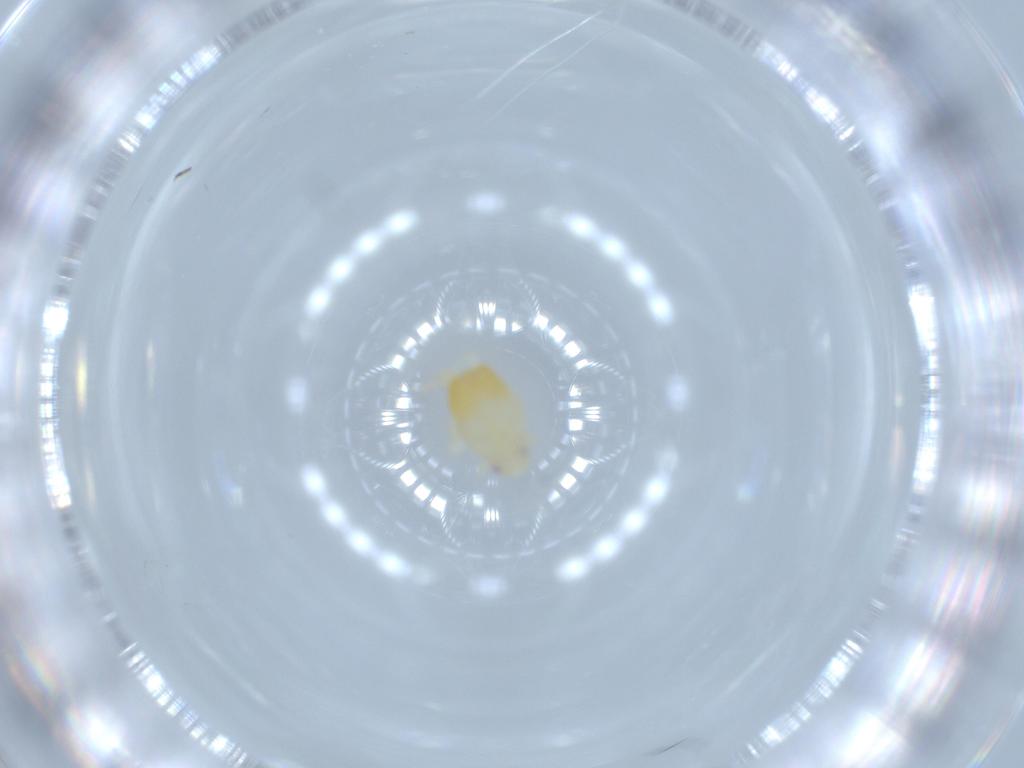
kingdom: Animalia
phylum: Arthropoda
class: Insecta
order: Hemiptera
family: Flatidae
